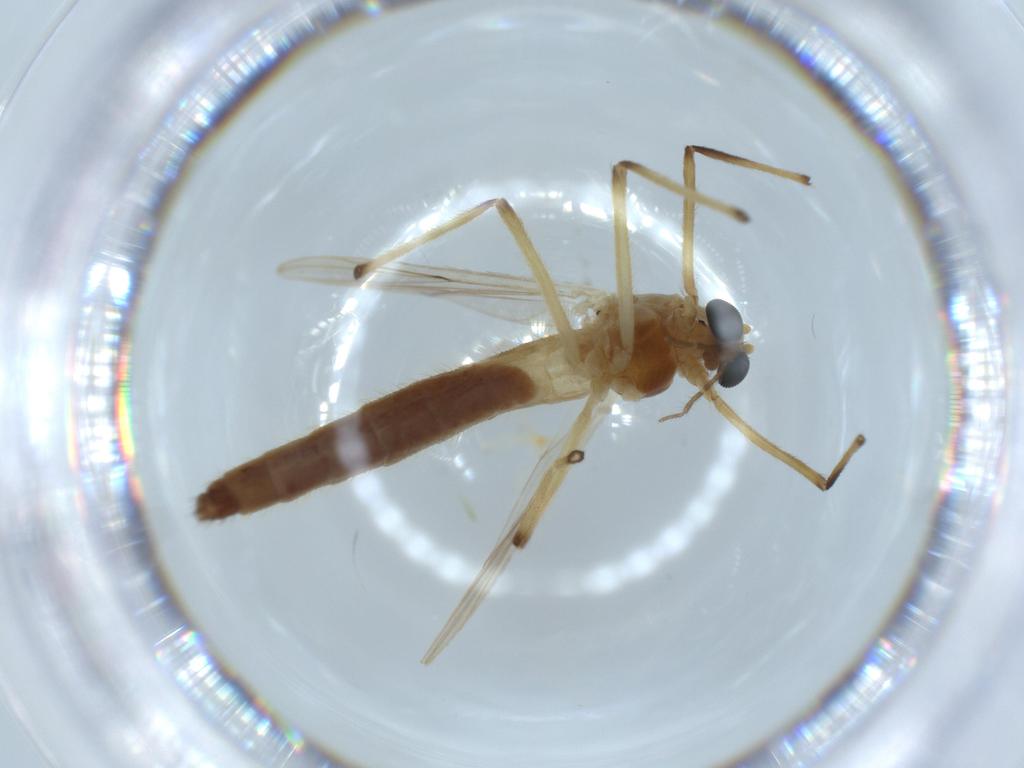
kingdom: Animalia
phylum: Arthropoda
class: Insecta
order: Diptera
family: Cecidomyiidae
